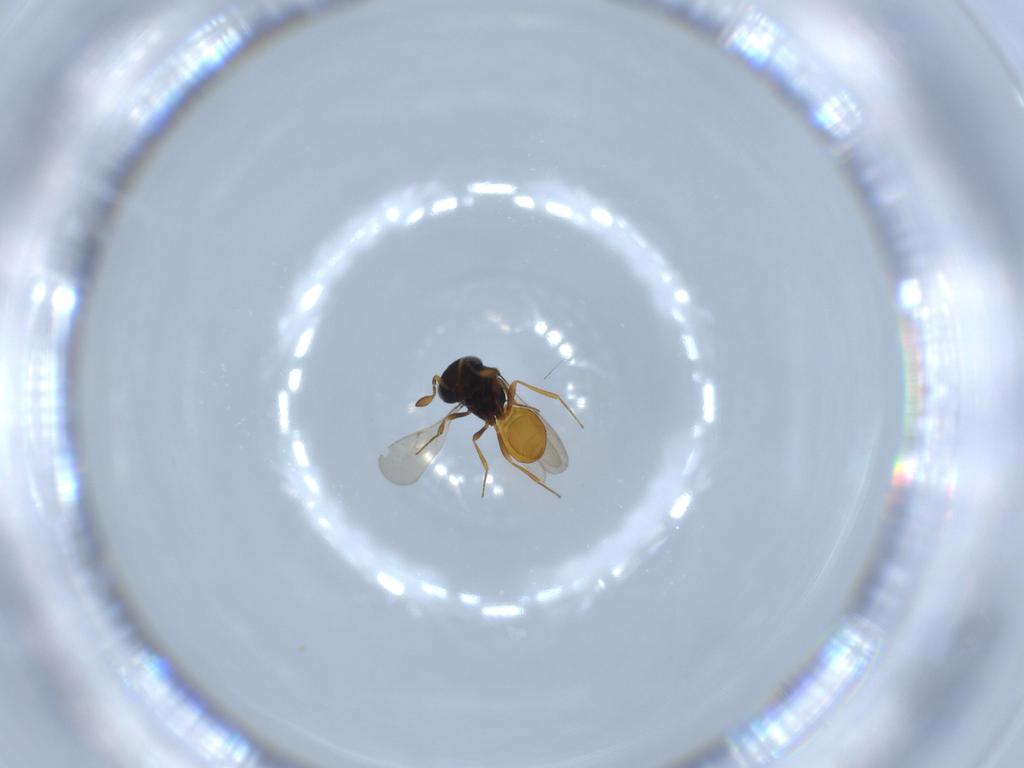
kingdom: Animalia
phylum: Arthropoda
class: Insecta
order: Hymenoptera
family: Scelionidae
